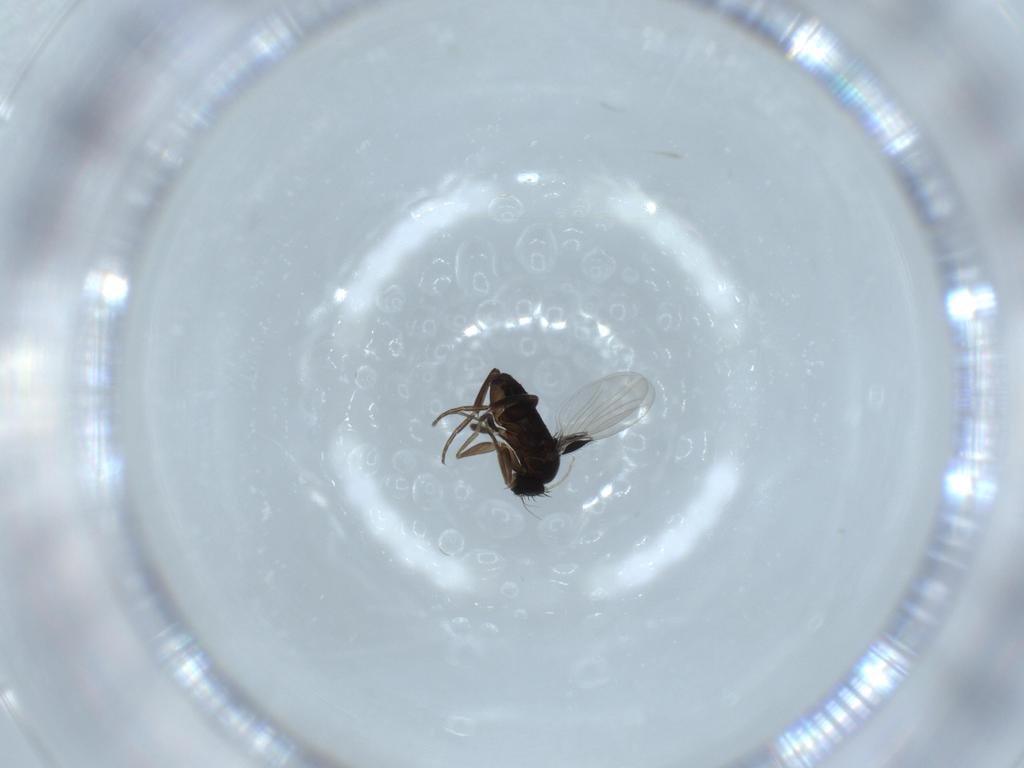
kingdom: Animalia
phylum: Arthropoda
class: Insecta
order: Diptera
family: Phoridae
